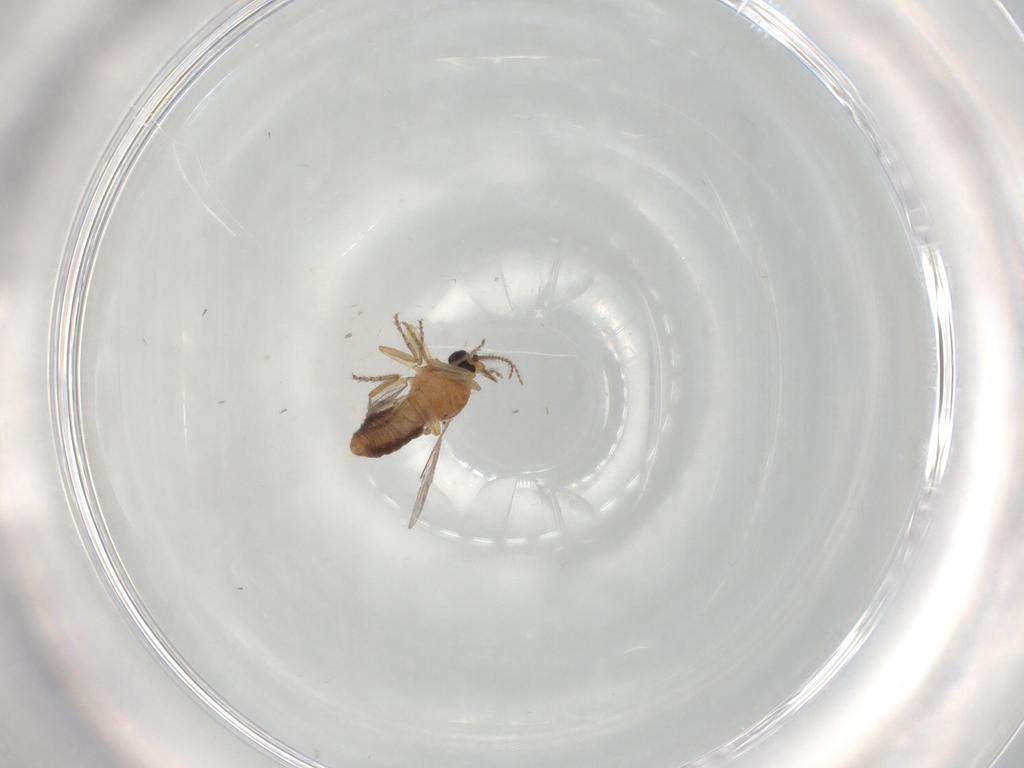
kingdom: Animalia
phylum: Arthropoda
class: Insecta
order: Diptera
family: Ceratopogonidae
